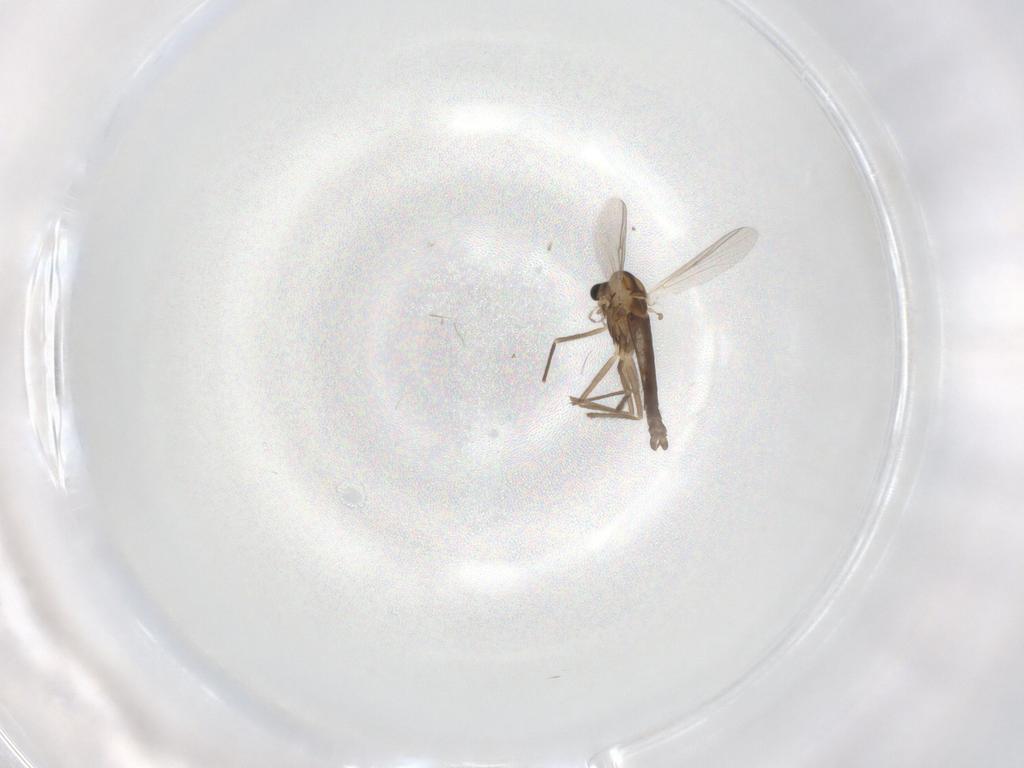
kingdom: Animalia
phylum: Arthropoda
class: Insecta
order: Diptera
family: Chironomidae
